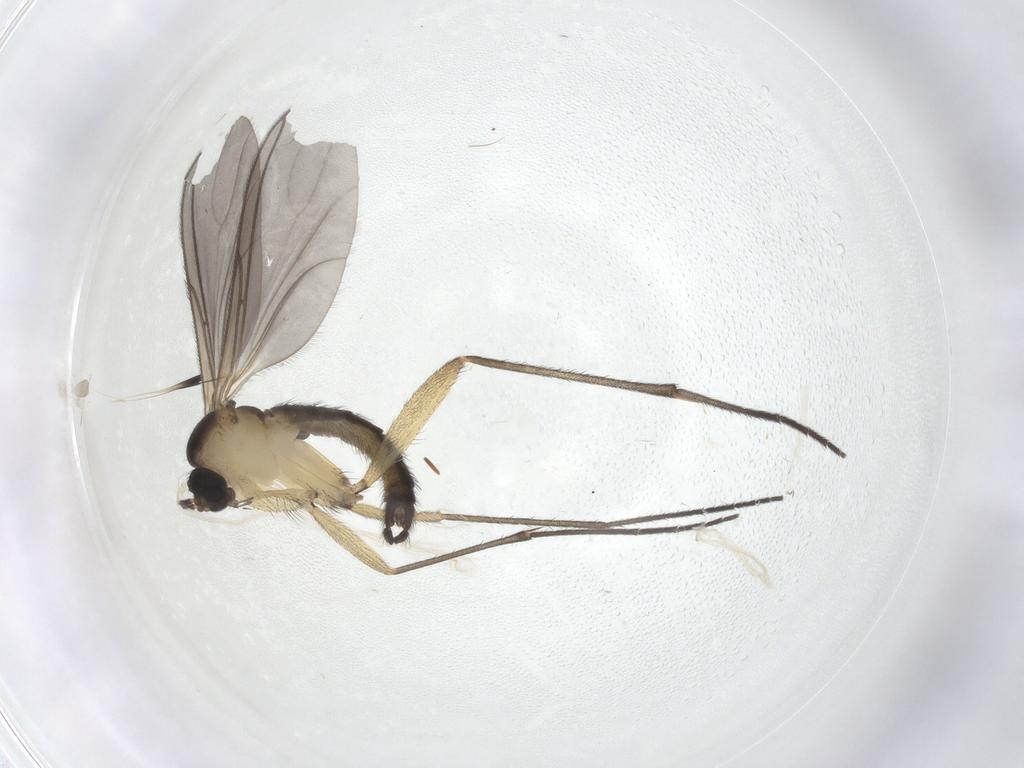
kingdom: Animalia
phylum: Arthropoda
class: Insecta
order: Diptera
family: Sciaridae
